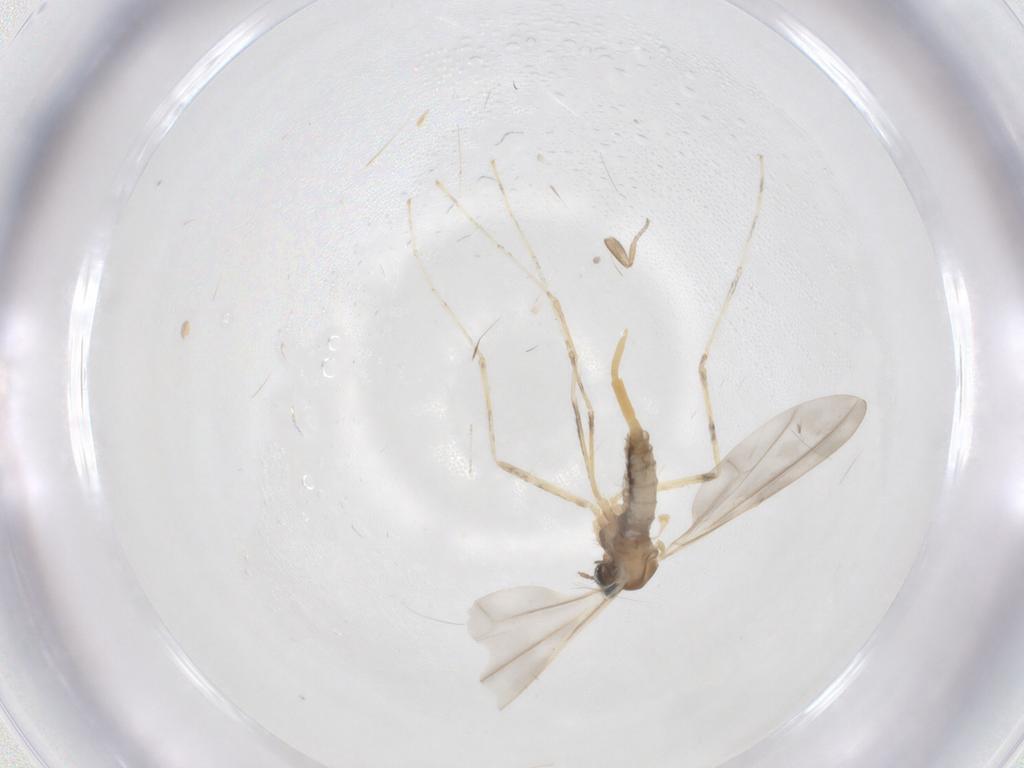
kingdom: Animalia
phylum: Arthropoda
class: Insecta
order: Diptera
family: Cecidomyiidae
